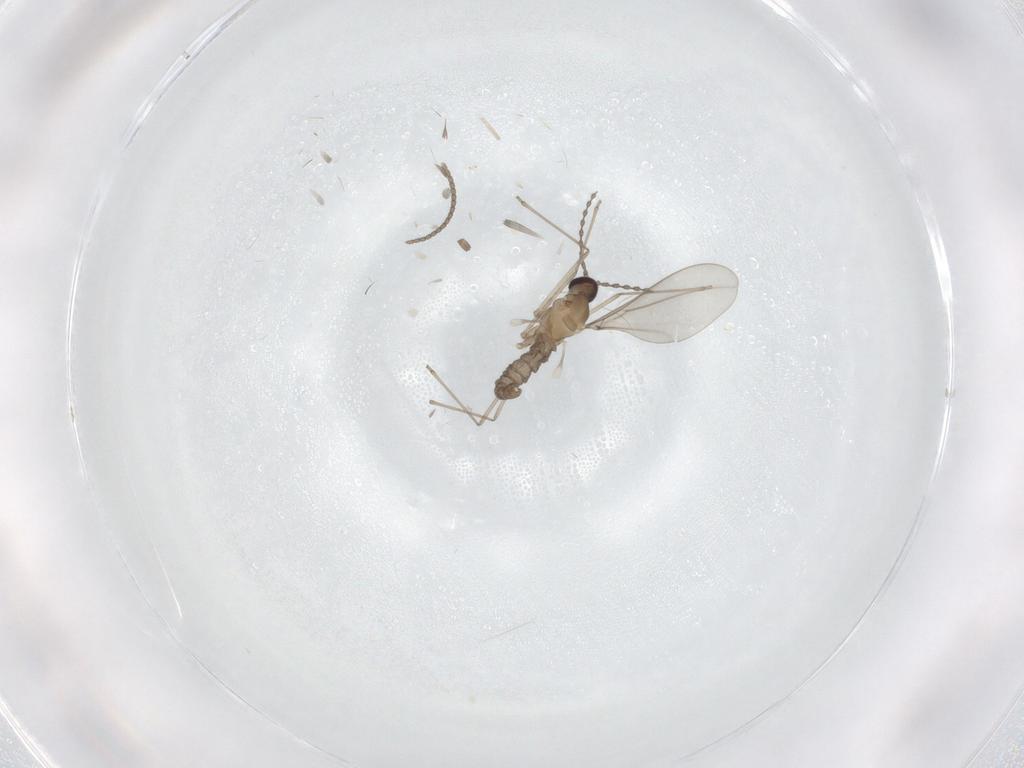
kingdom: Animalia
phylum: Arthropoda
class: Insecta
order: Diptera
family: Cecidomyiidae
